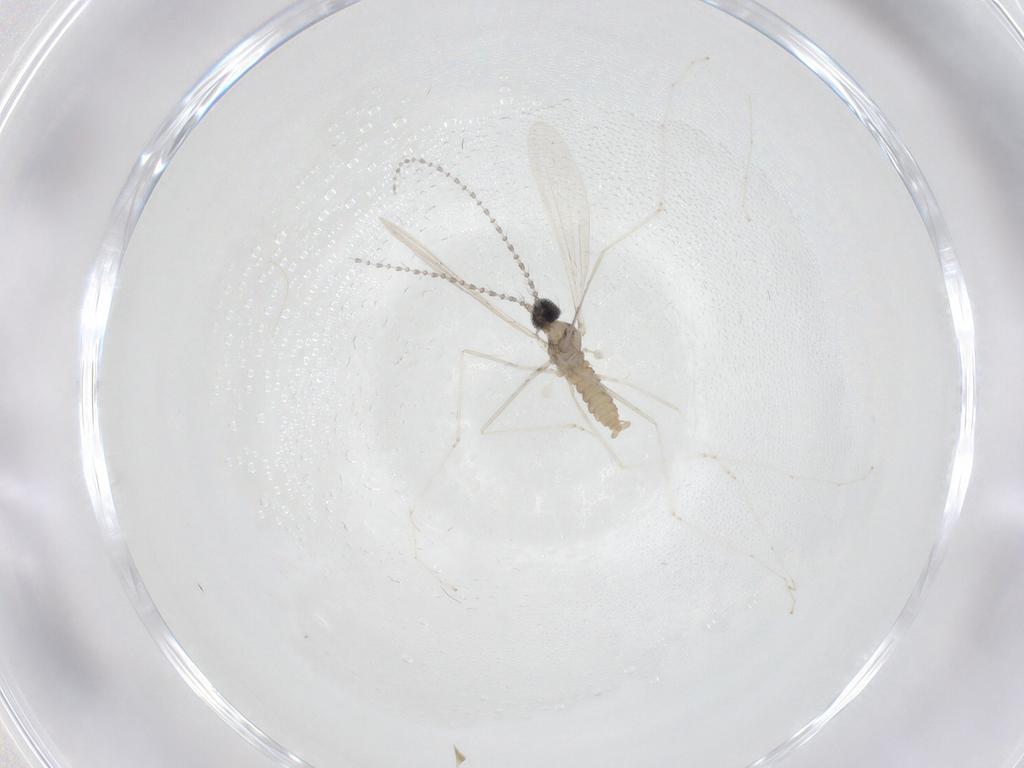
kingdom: Animalia
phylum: Arthropoda
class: Insecta
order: Diptera
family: Cecidomyiidae
